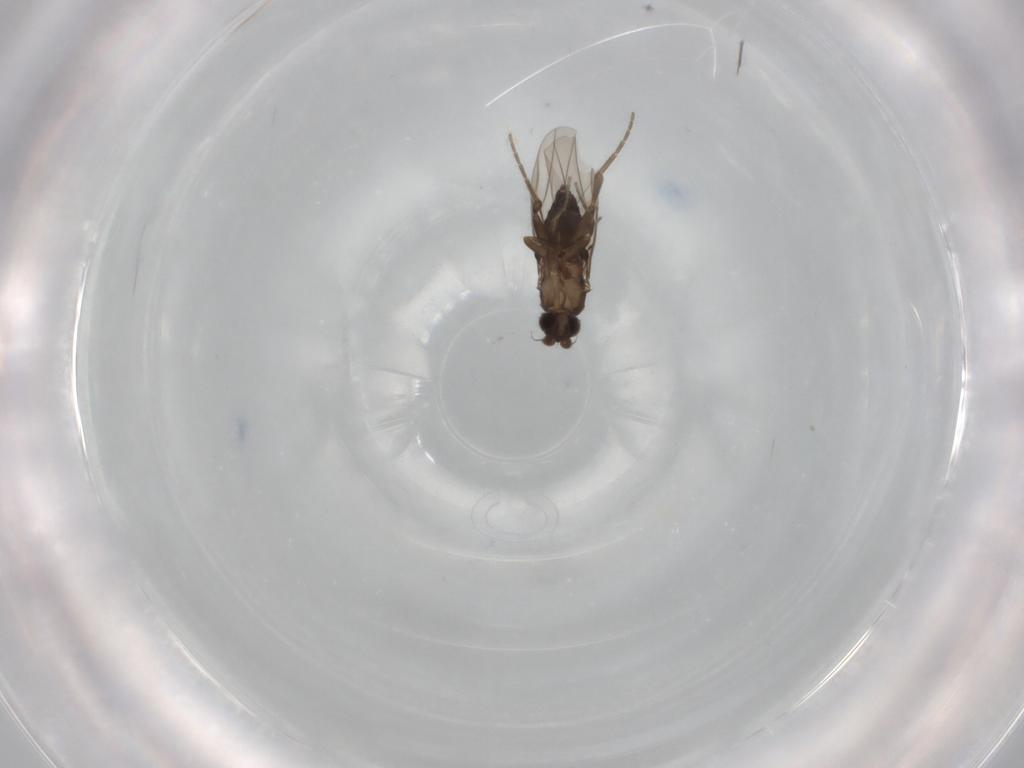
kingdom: Animalia
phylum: Arthropoda
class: Insecta
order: Diptera
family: Phoridae
